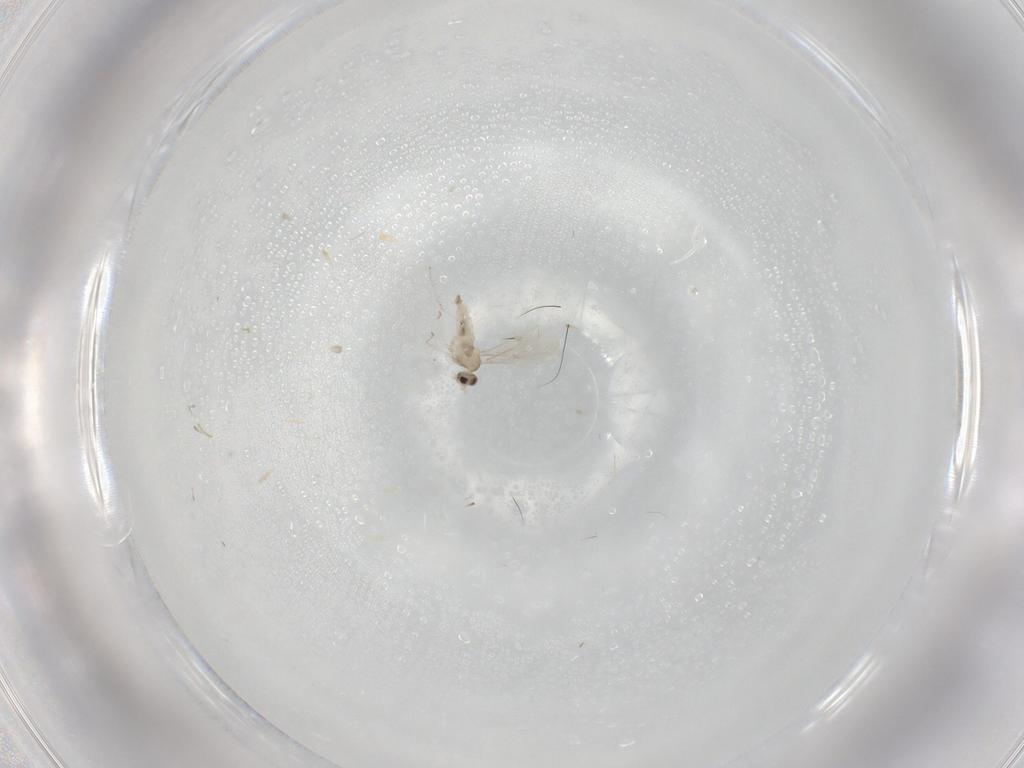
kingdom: Animalia
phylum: Arthropoda
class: Insecta
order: Diptera
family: Cecidomyiidae
